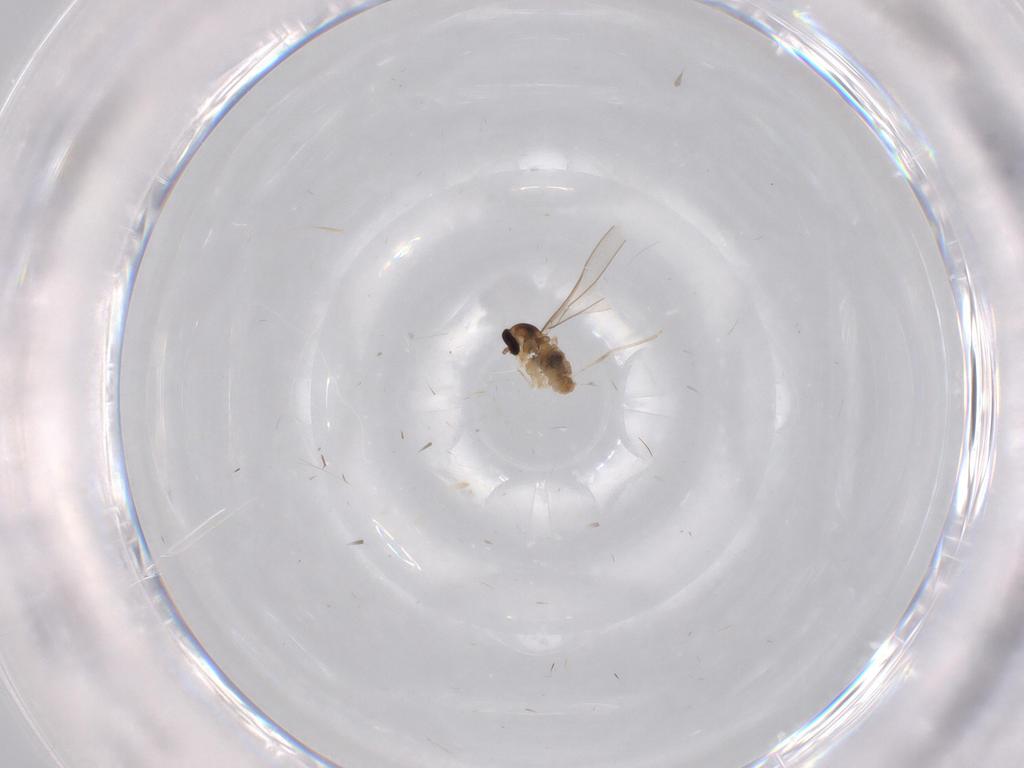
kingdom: Animalia
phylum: Arthropoda
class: Insecta
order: Diptera
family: Cecidomyiidae
